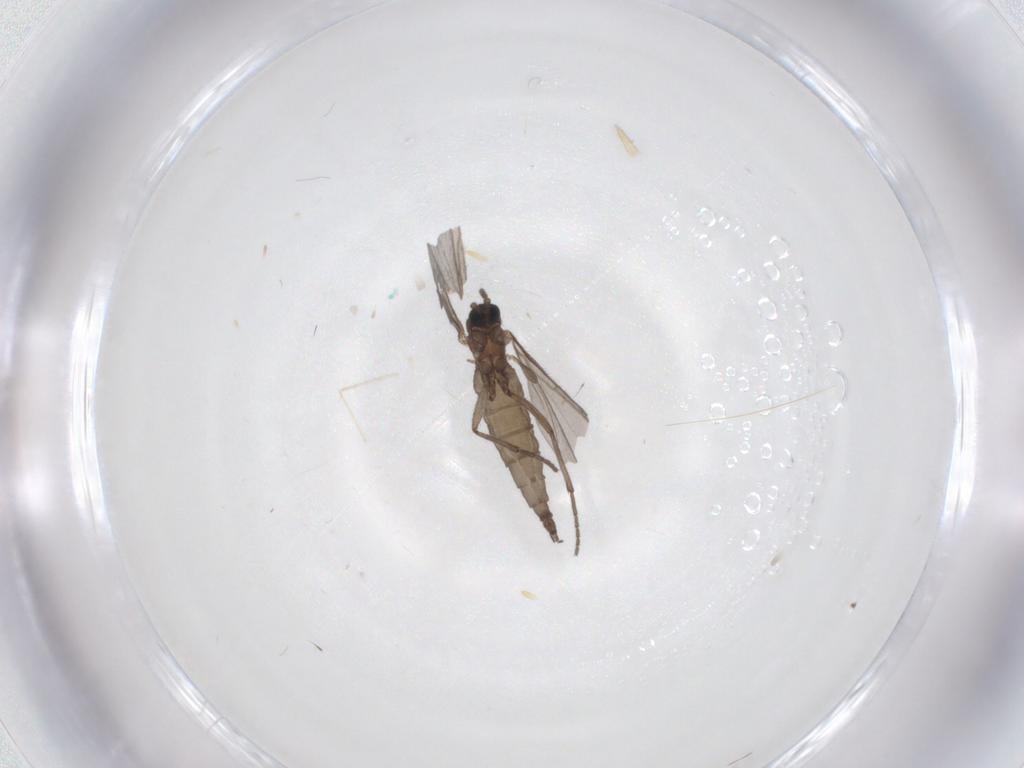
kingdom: Animalia
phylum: Arthropoda
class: Insecta
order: Diptera
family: Sciaridae
